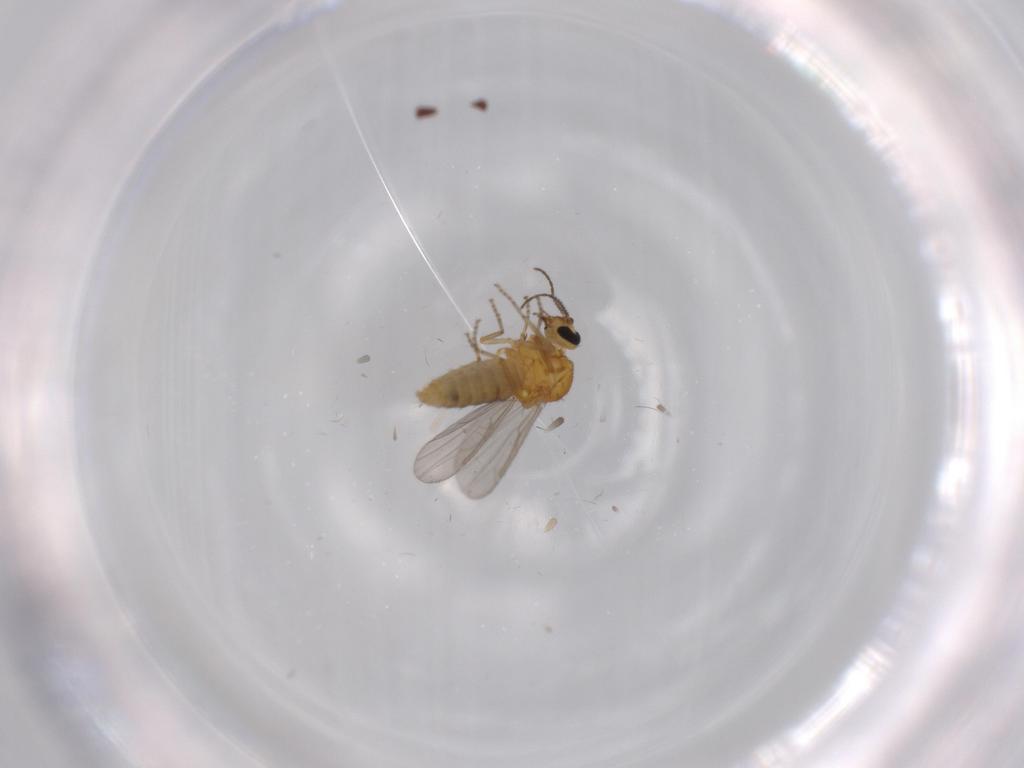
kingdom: Animalia
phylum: Arthropoda
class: Insecta
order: Diptera
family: Ceratopogonidae
